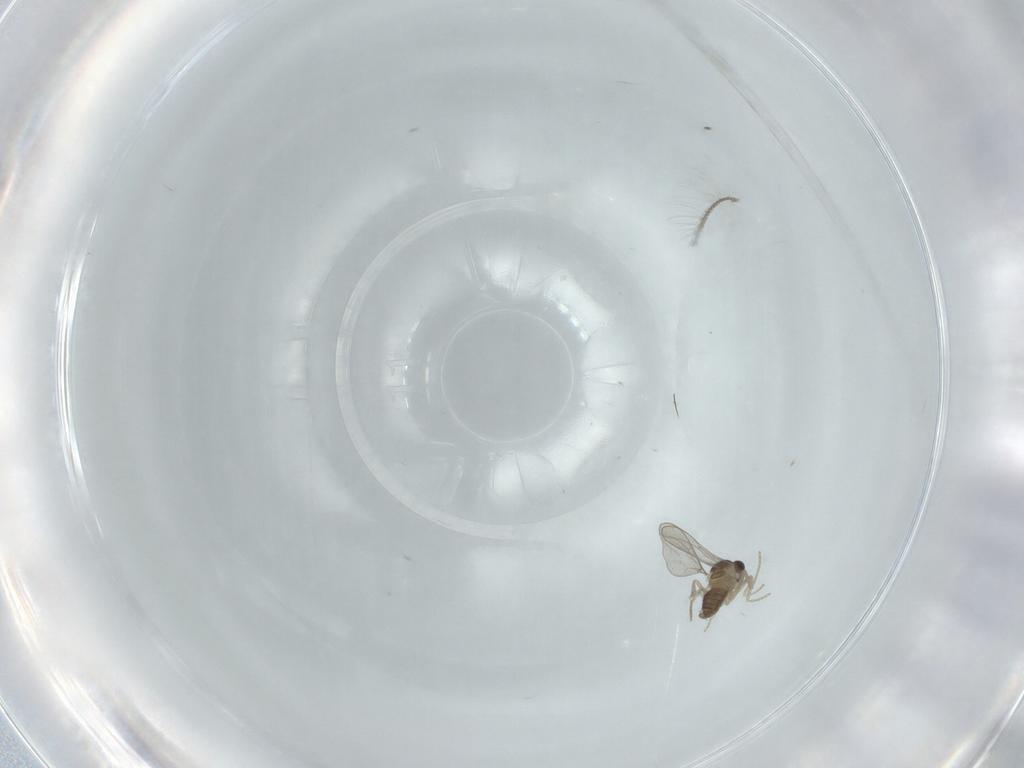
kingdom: Animalia
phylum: Arthropoda
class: Insecta
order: Diptera
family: Cecidomyiidae
